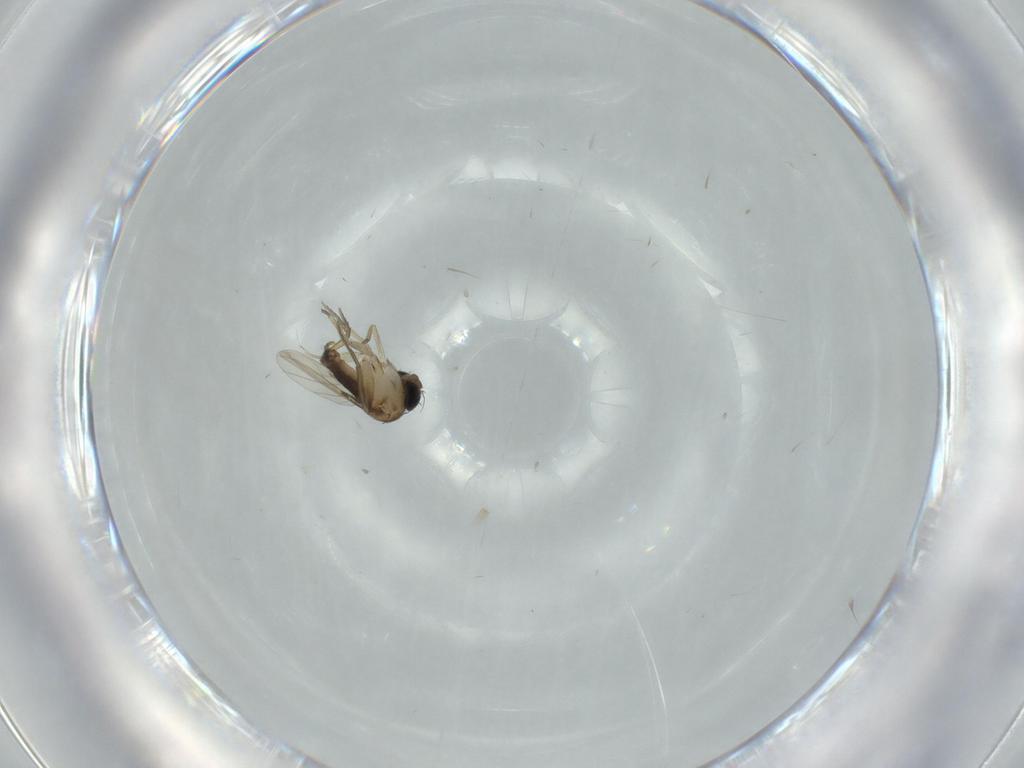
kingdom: Animalia
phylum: Arthropoda
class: Insecta
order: Diptera
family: Phoridae
